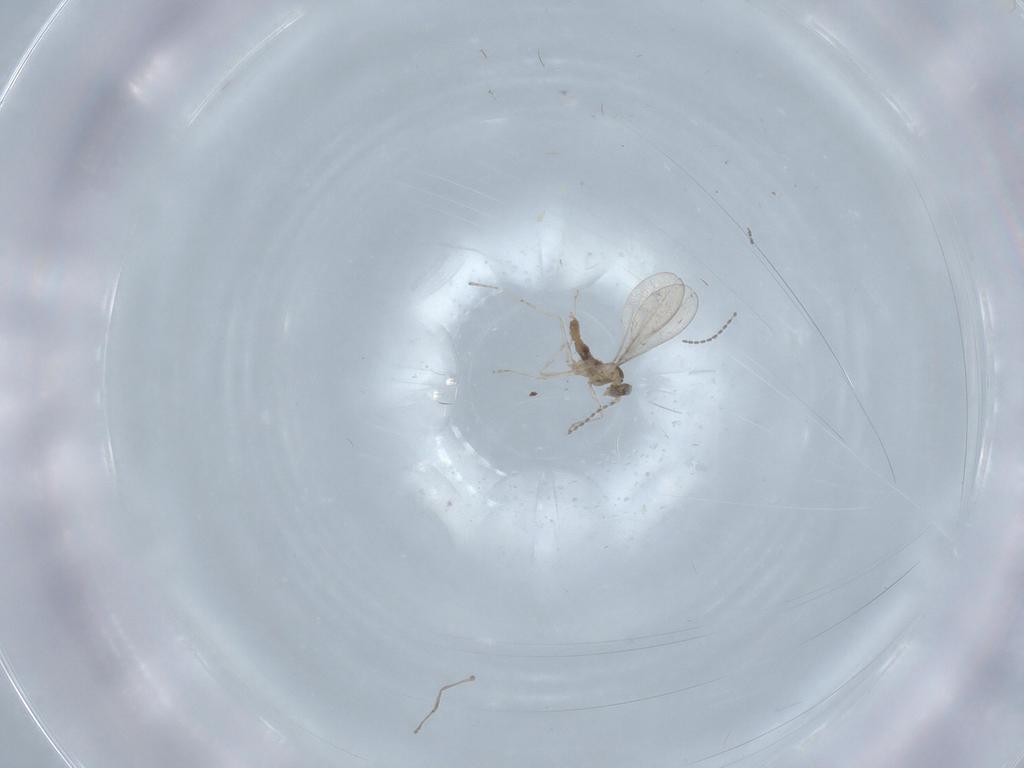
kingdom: Animalia
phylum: Arthropoda
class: Insecta
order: Diptera
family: Cecidomyiidae
